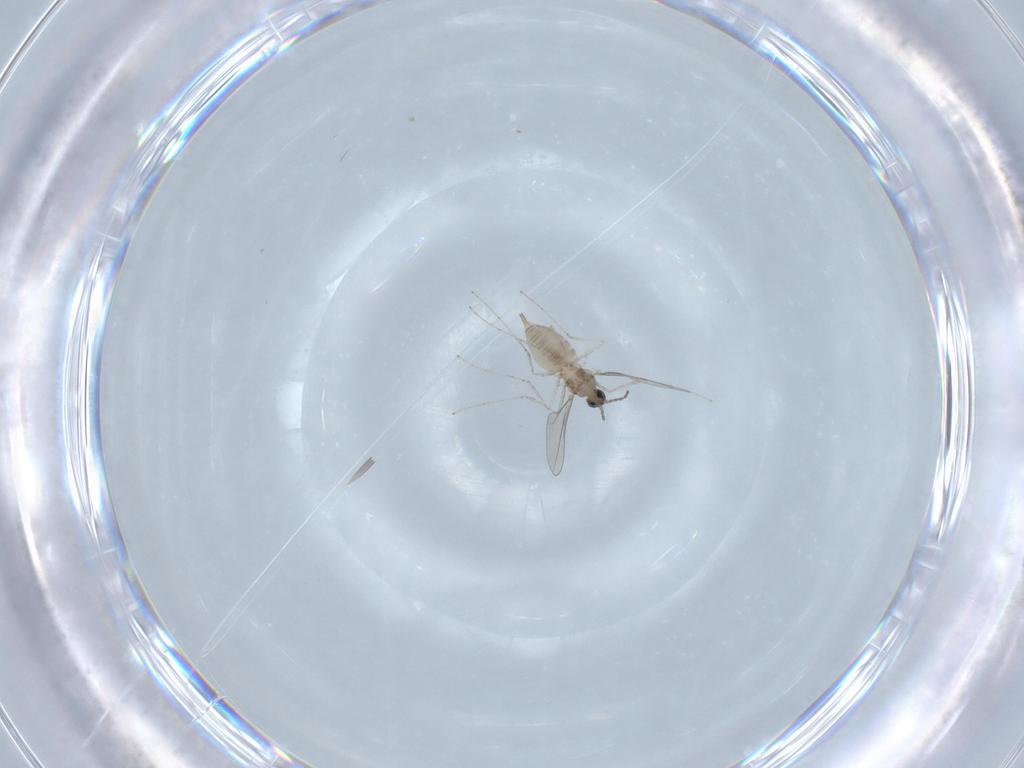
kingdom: Animalia
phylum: Arthropoda
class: Insecta
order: Diptera
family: Cecidomyiidae
